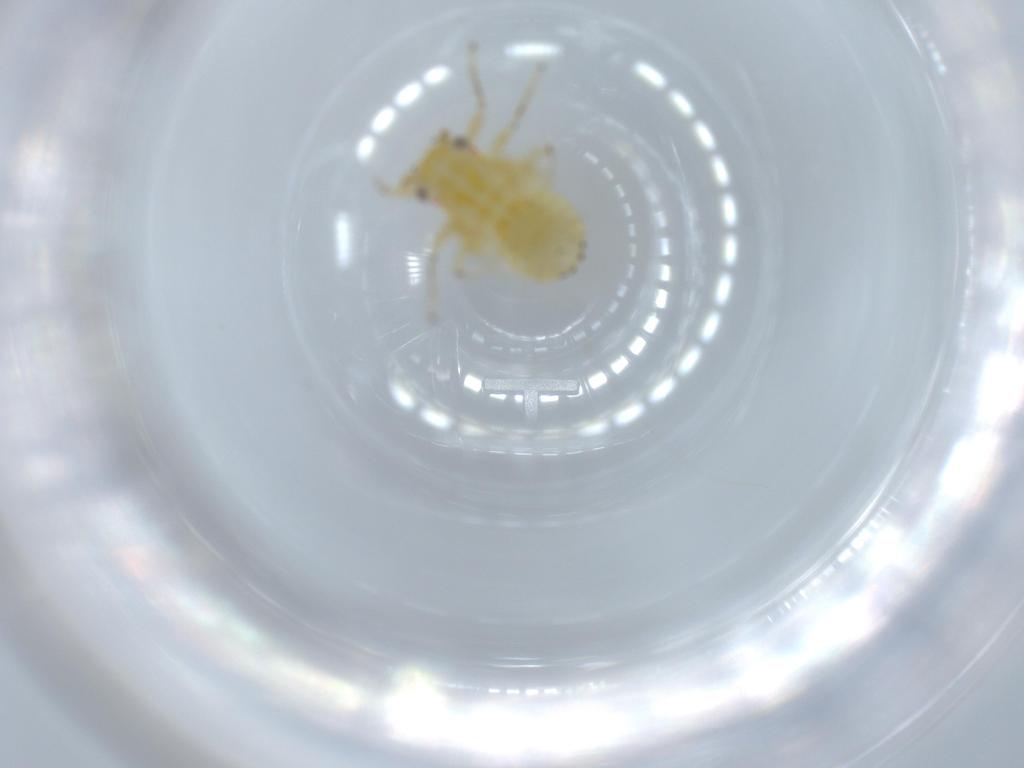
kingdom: Animalia
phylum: Arthropoda
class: Insecta
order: Hemiptera
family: Psyllidae
